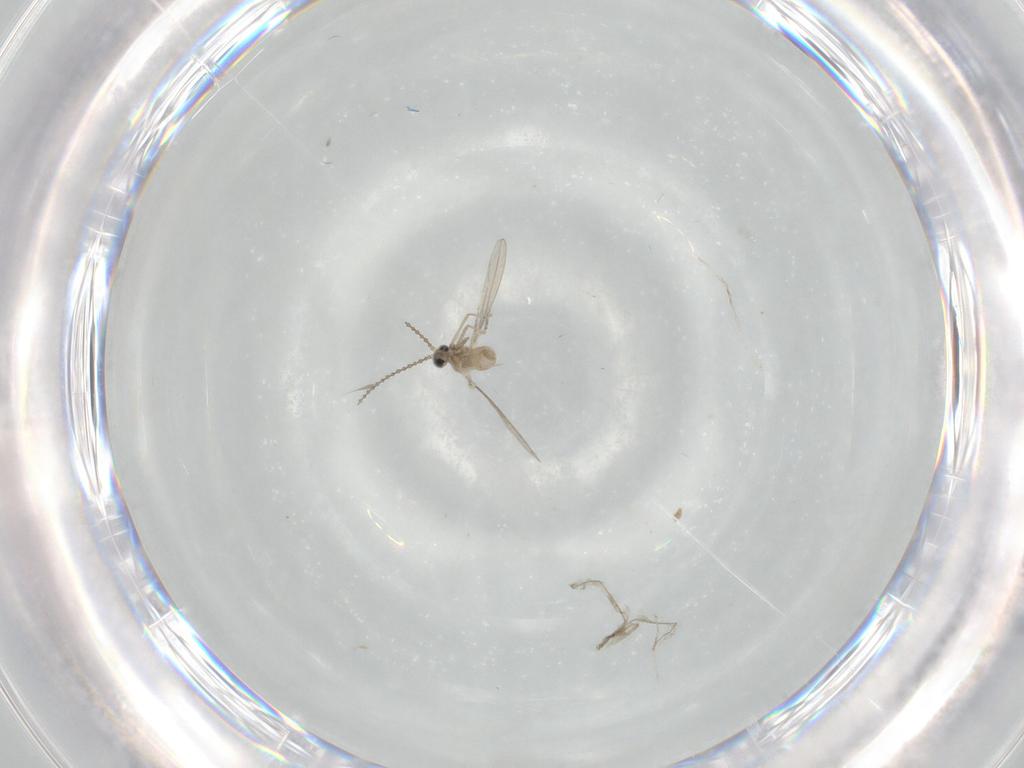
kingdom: Animalia
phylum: Arthropoda
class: Insecta
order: Diptera
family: Cecidomyiidae
